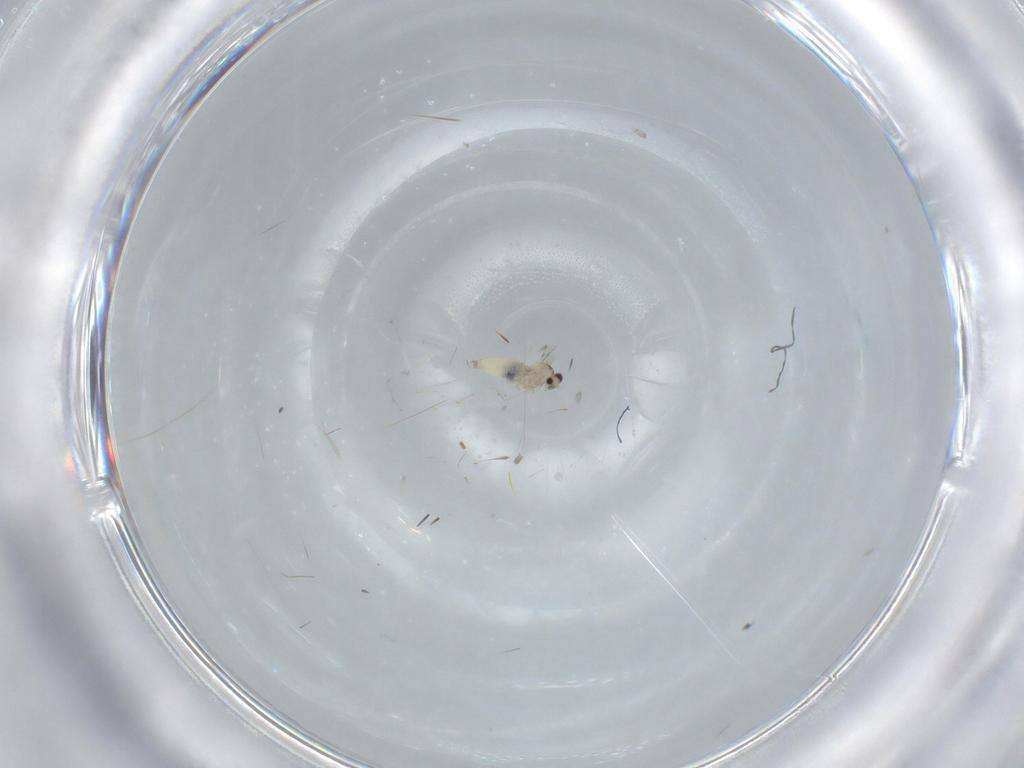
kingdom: Animalia
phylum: Arthropoda
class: Insecta
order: Diptera
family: Cecidomyiidae
